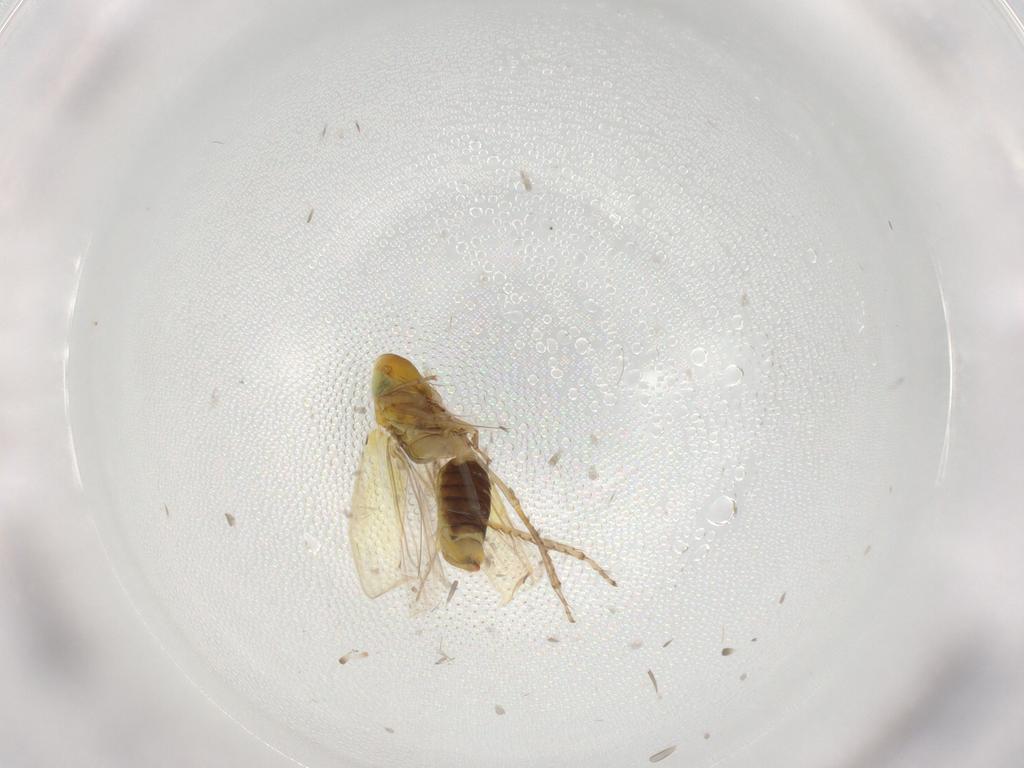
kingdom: Animalia
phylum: Arthropoda
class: Insecta
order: Hemiptera
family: Cicadellidae
